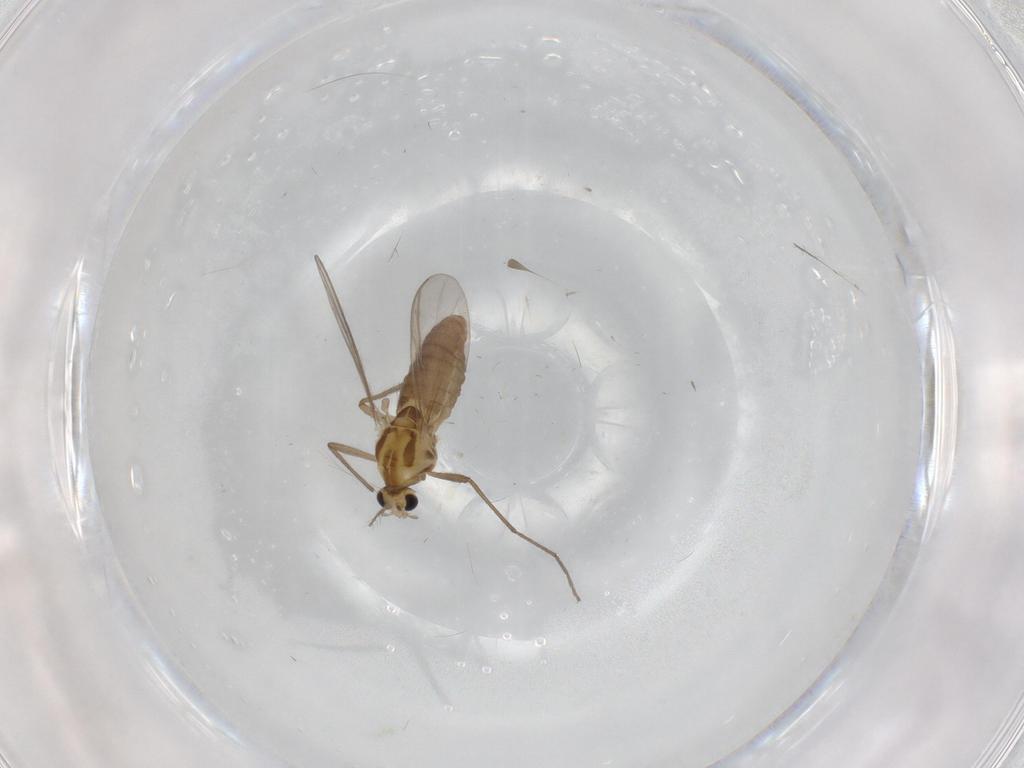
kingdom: Animalia
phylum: Arthropoda
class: Insecta
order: Diptera
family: Chironomidae
